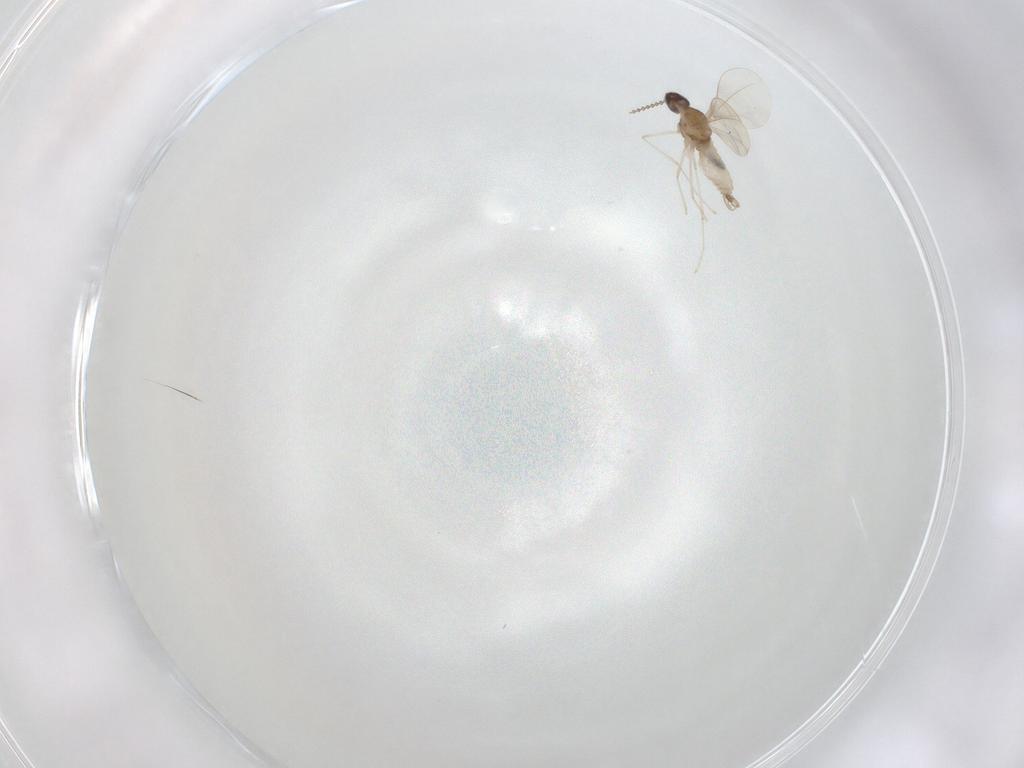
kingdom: Animalia
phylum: Arthropoda
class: Insecta
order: Diptera
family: Cecidomyiidae
